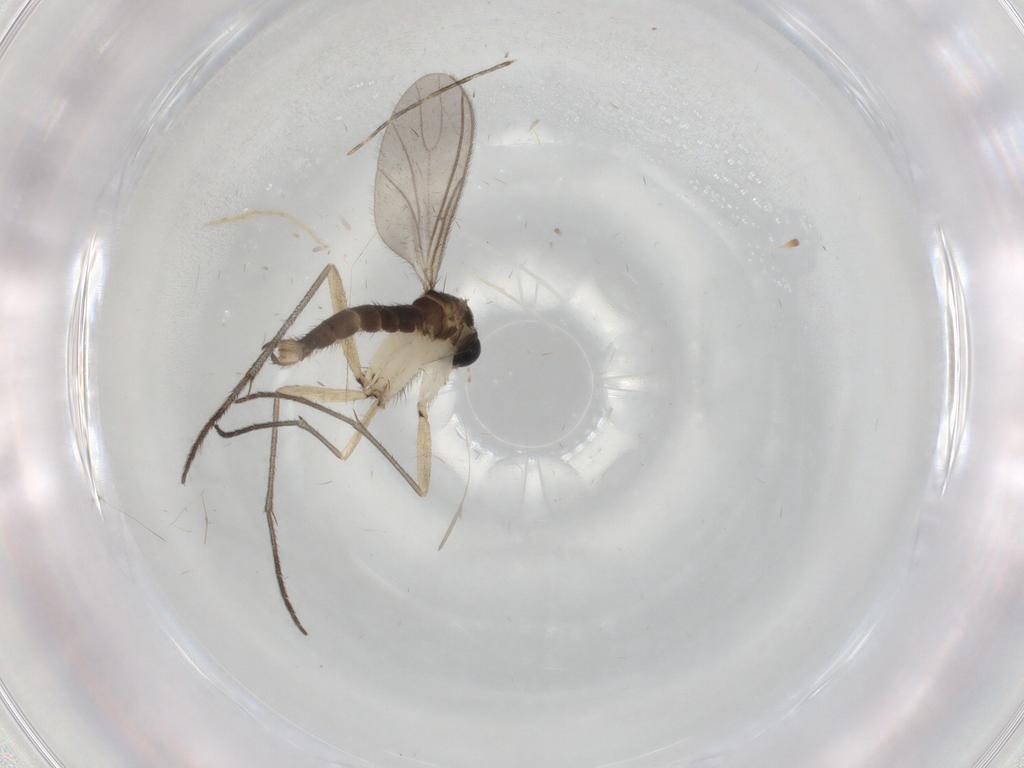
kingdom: Animalia
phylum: Arthropoda
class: Insecta
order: Diptera
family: Sciaridae
